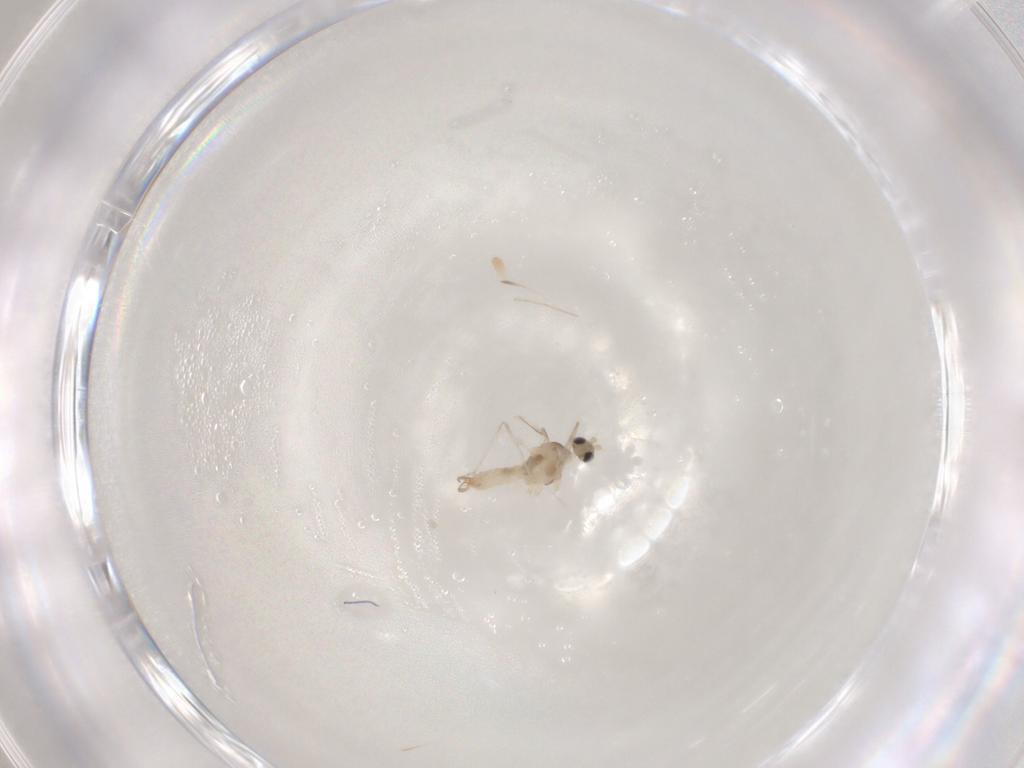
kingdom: Animalia
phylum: Arthropoda
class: Insecta
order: Diptera
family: Cecidomyiidae
